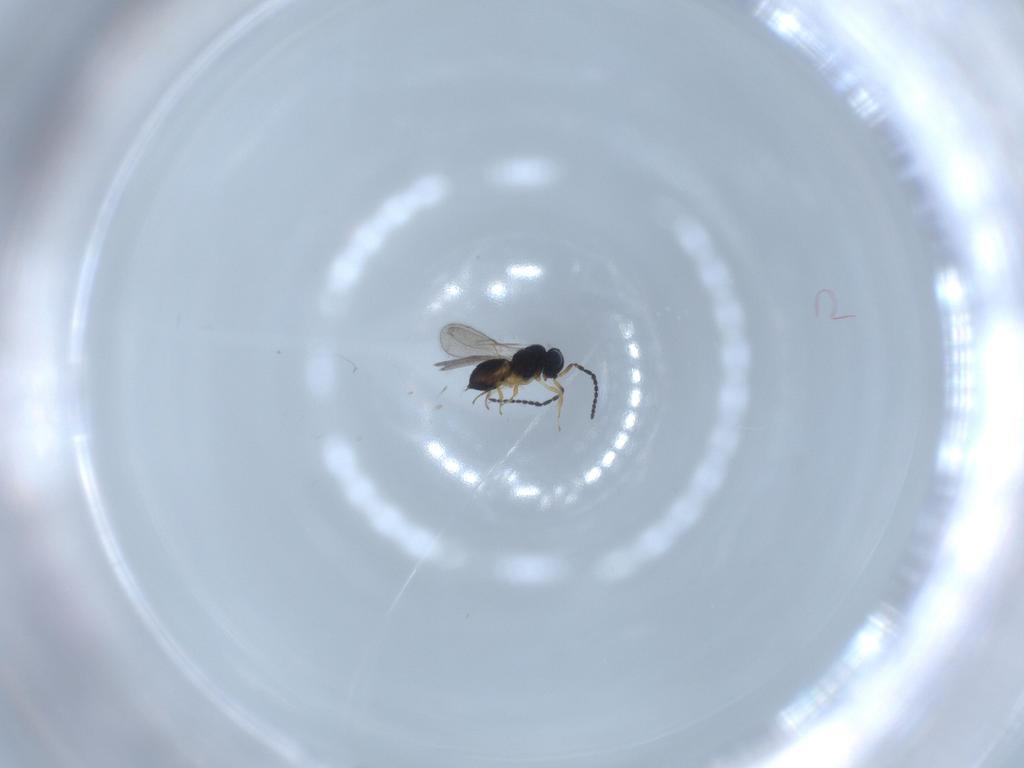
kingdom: Animalia
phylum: Arthropoda
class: Insecta
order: Hymenoptera
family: Scelionidae
